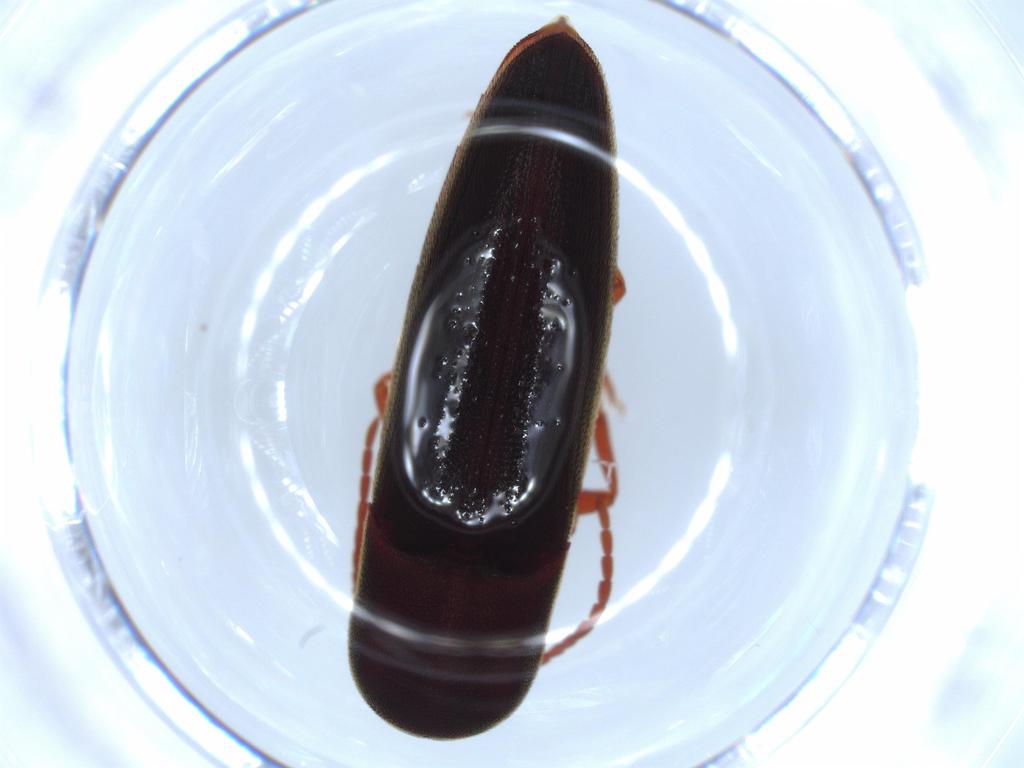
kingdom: Animalia
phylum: Arthropoda
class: Insecta
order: Coleoptera
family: Eucnemidae
